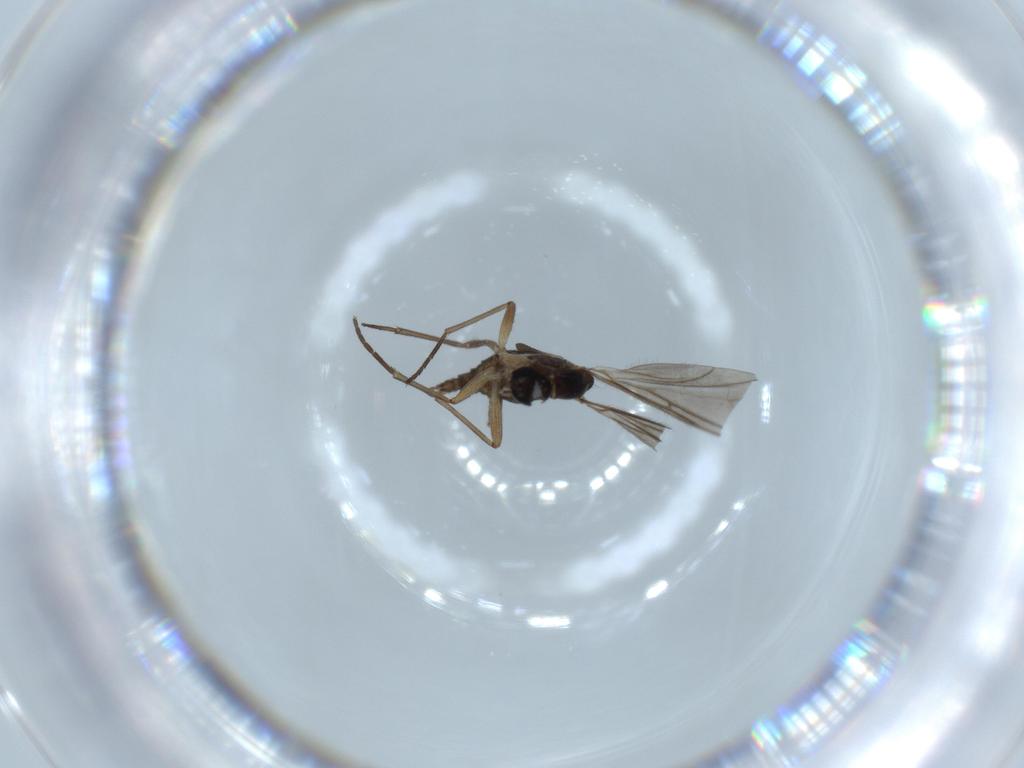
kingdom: Animalia
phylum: Arthropoda
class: Insecta
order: Diptera
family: Sciaridae
